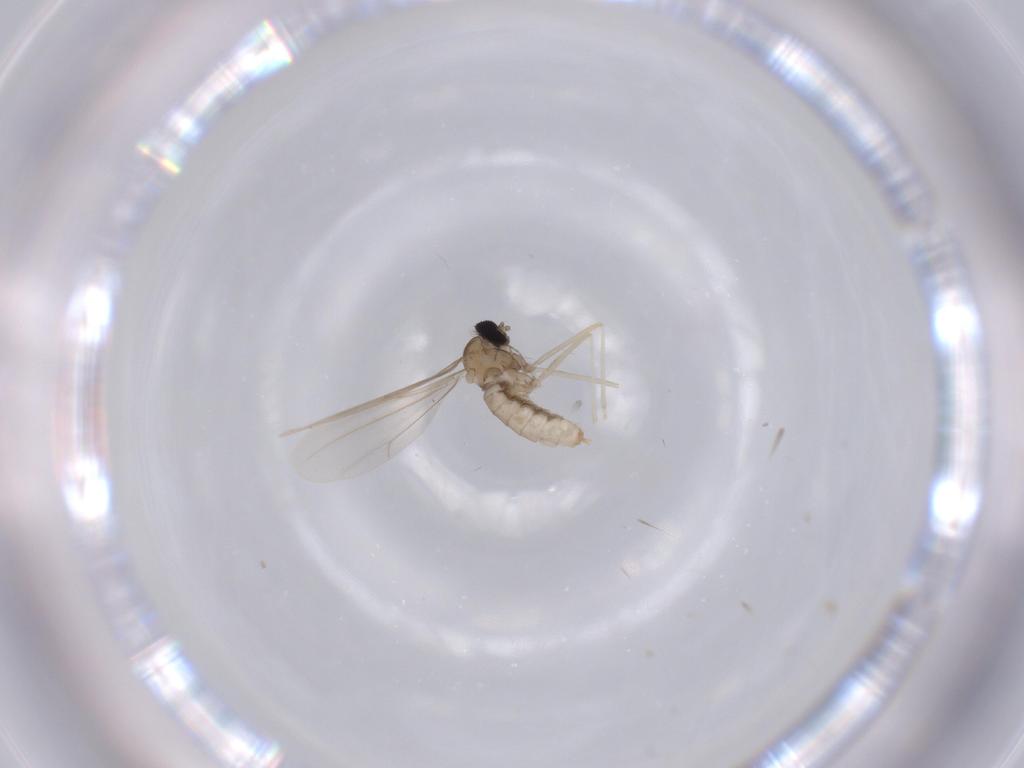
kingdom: Animalia
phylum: Arthropoda
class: Insecta
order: Diptera
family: Cecidomyiidae
